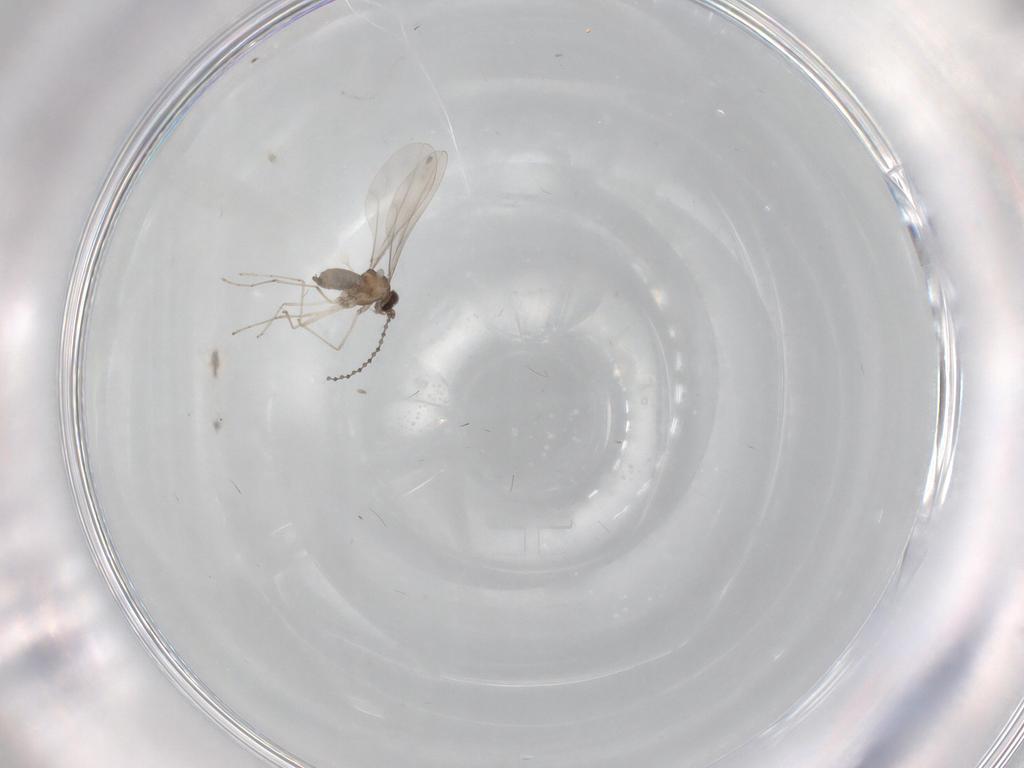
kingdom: Animalia
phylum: Arthropoda
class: Insecta
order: Diptera
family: Cecidomyiidae
